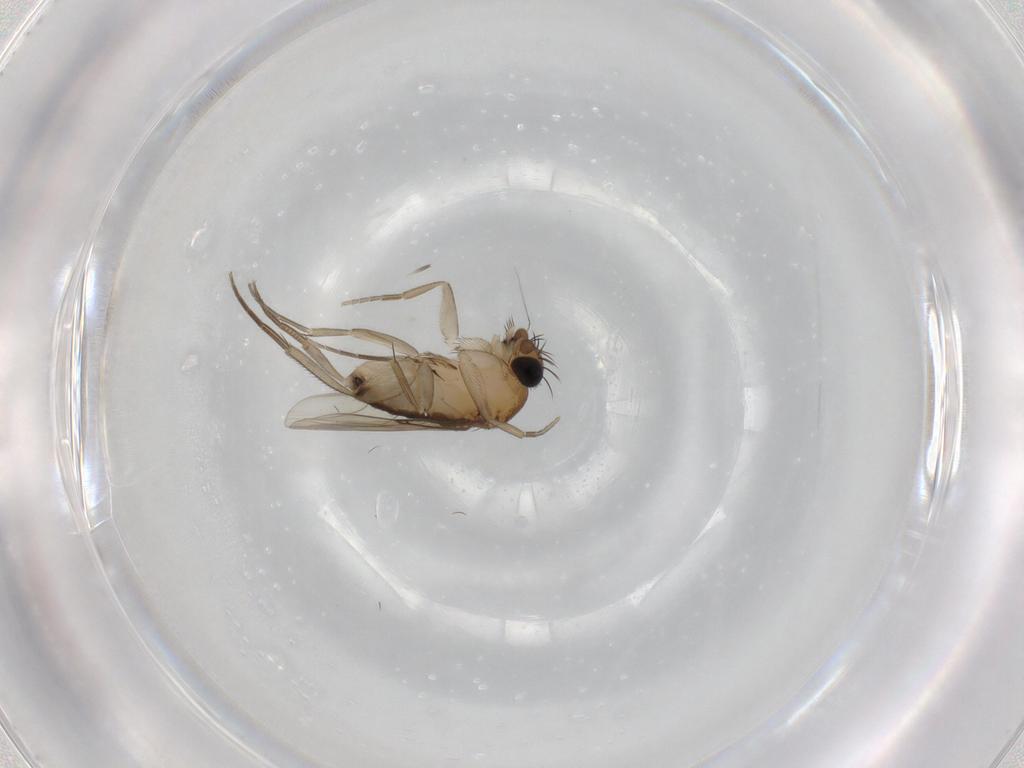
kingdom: Animalia
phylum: Arthropoda
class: Insecta
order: Diptera
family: Phoridae
